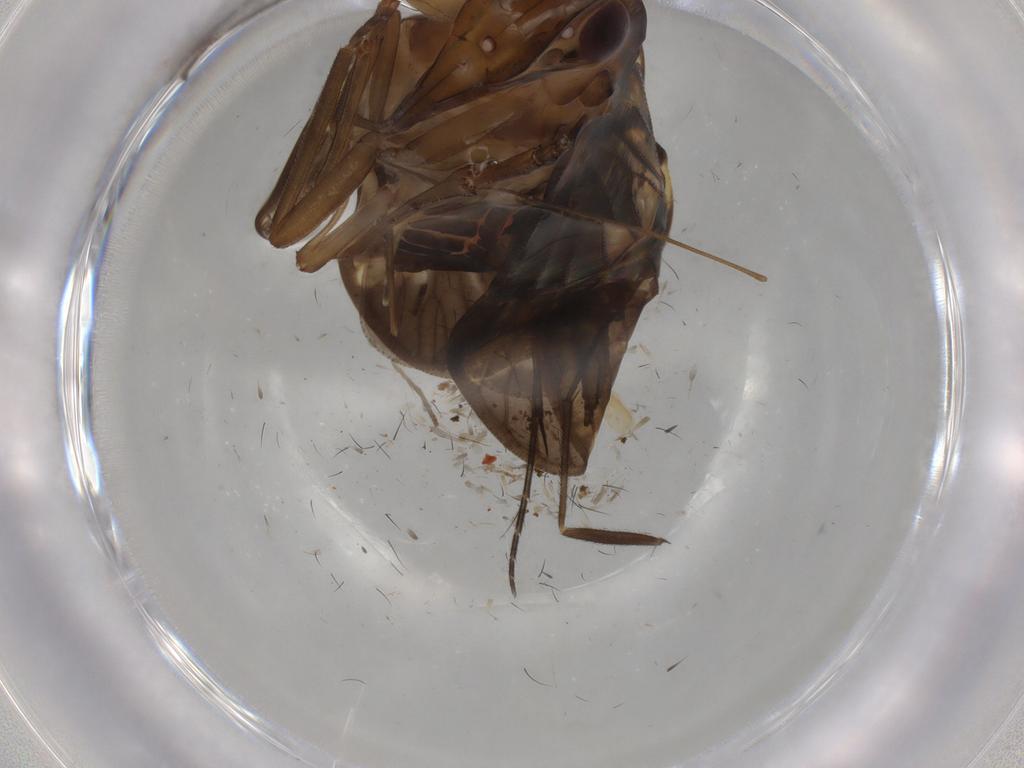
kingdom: Animalia
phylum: Arthropoda
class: Insecta
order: Hemiptera
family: Cixiidae
